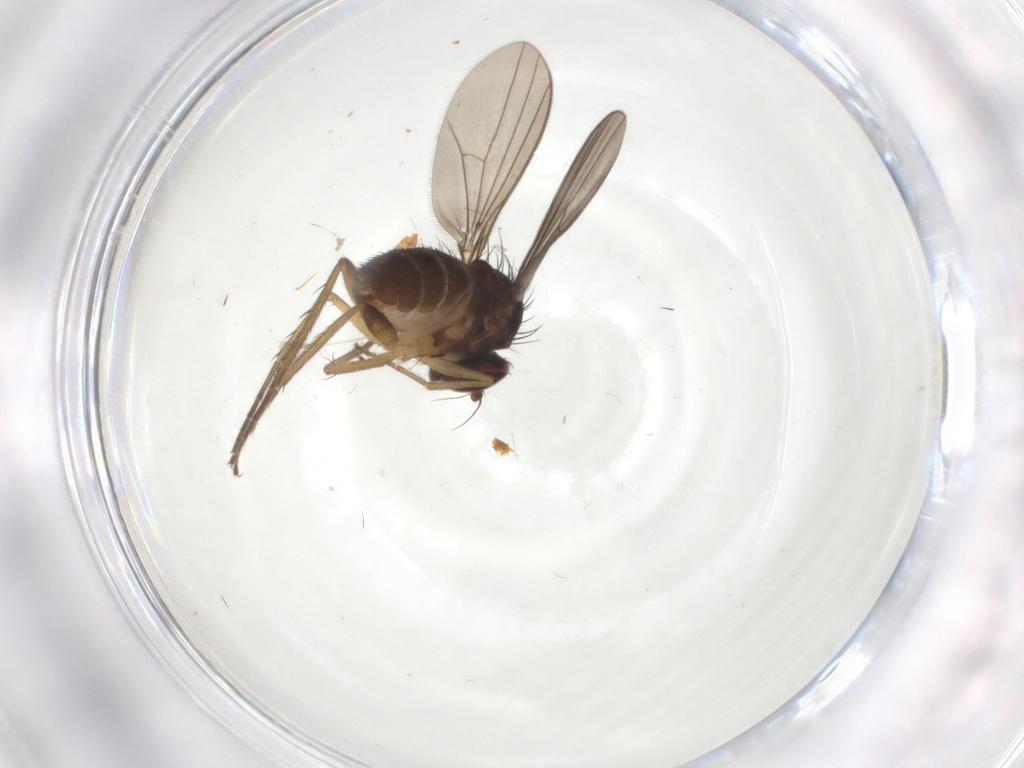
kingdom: Animalia
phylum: Arthropoda
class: Insecta
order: Diptera
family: Dolichopodidae
